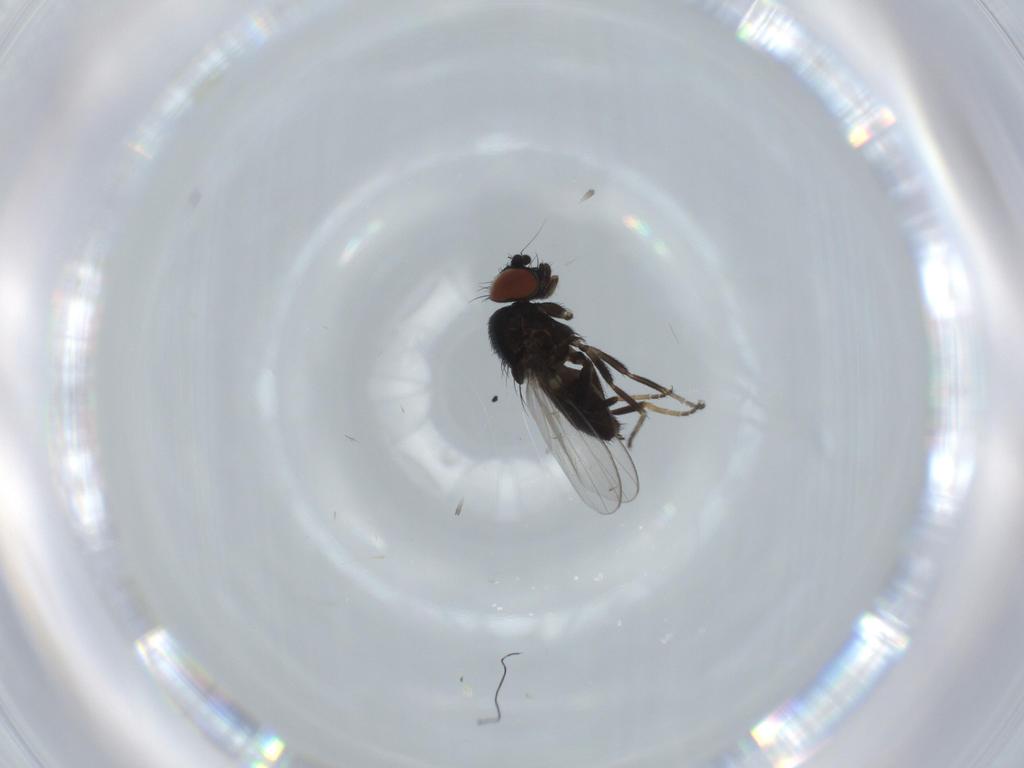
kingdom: Animalia
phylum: Arthropoda
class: Insecta
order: Diptera
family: Milichiidae
